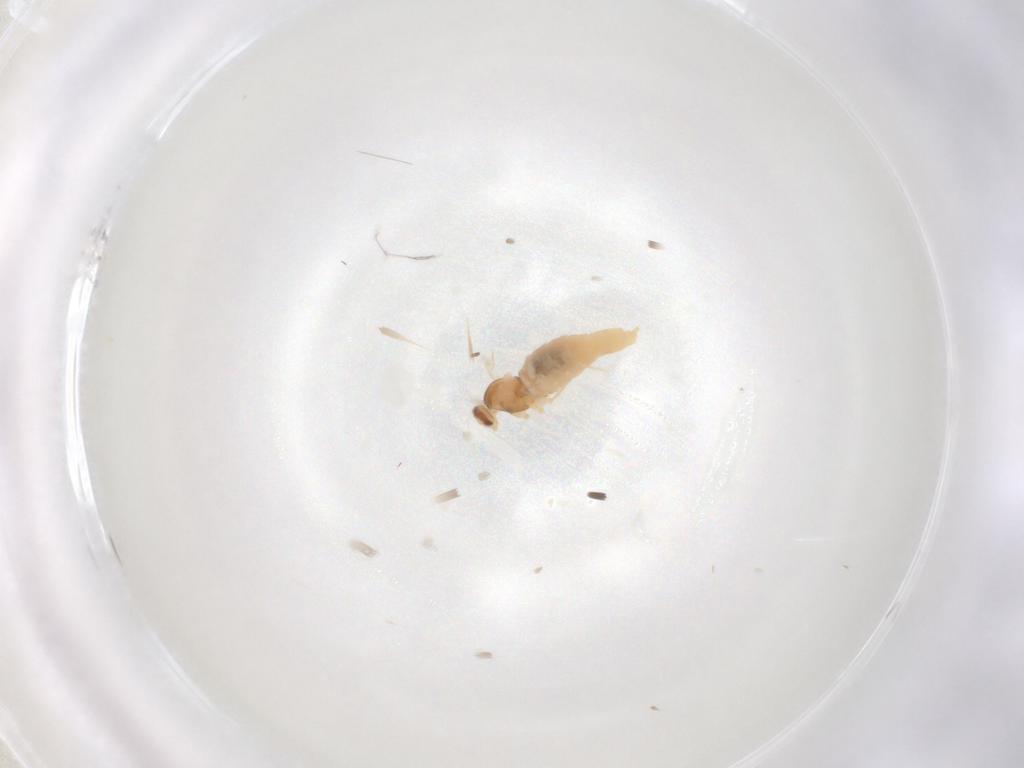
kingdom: Animalia
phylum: Arthropoda
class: Insecta
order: Diptera
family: Cecidomyiidae
